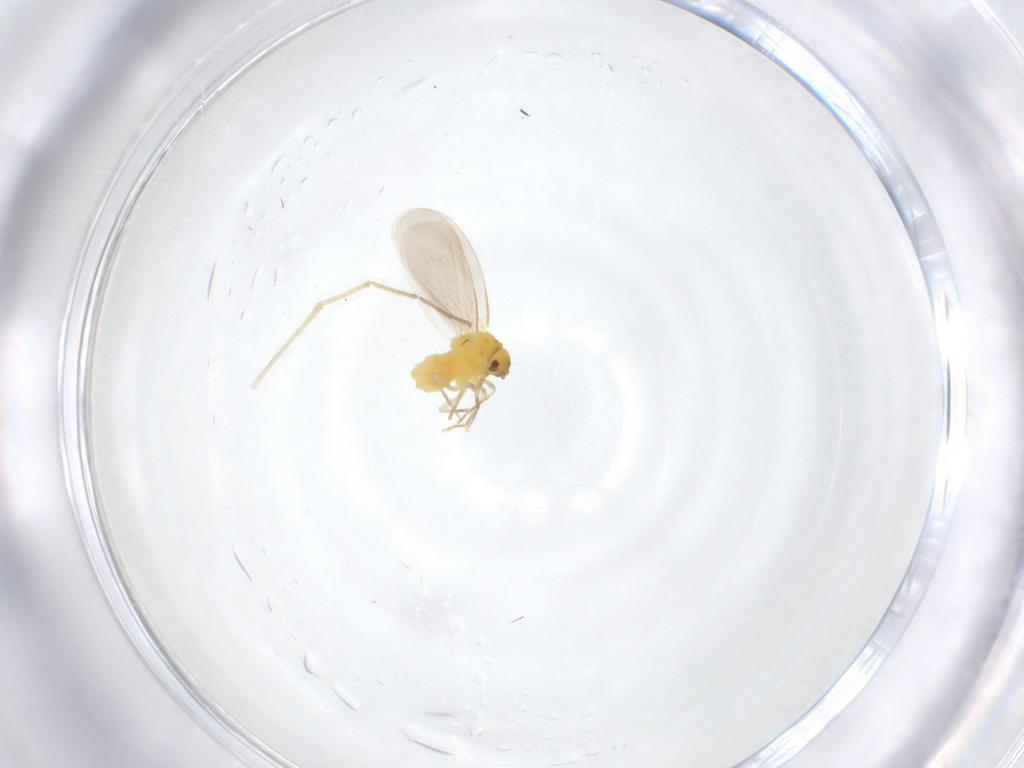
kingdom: Animalia
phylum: Arthropoda
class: Insecta
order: Hemiptera
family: Aleyrodidae
